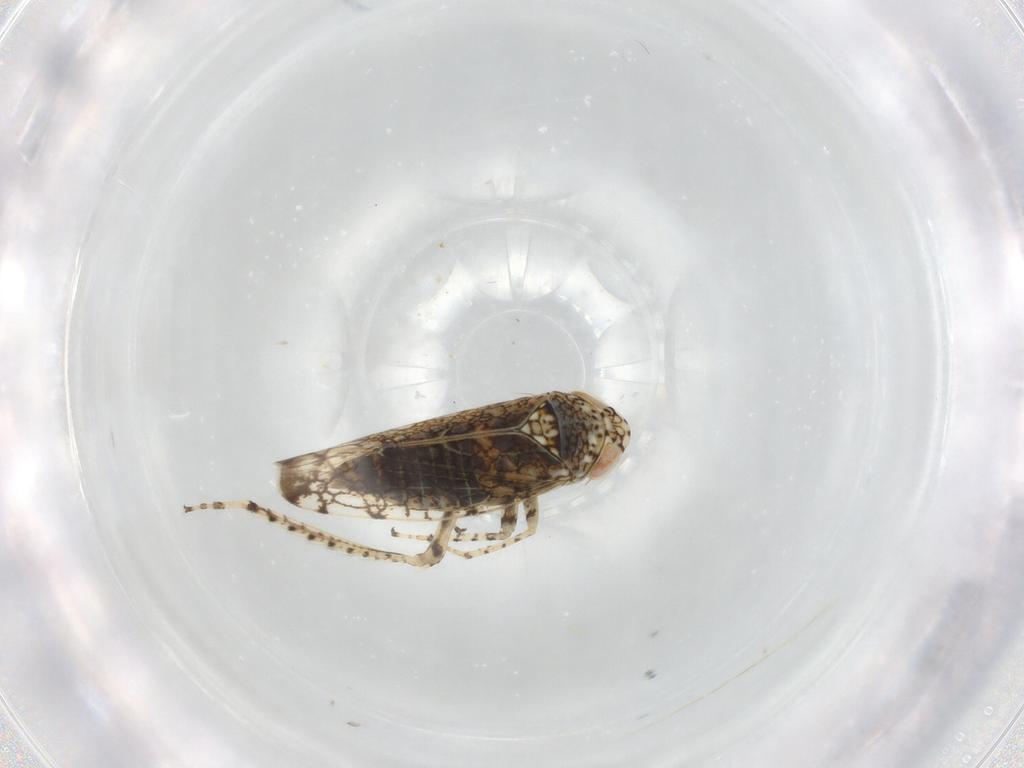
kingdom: Animalia
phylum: Arthropoda
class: Insecta
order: Hemiptera
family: Cicadellidae
